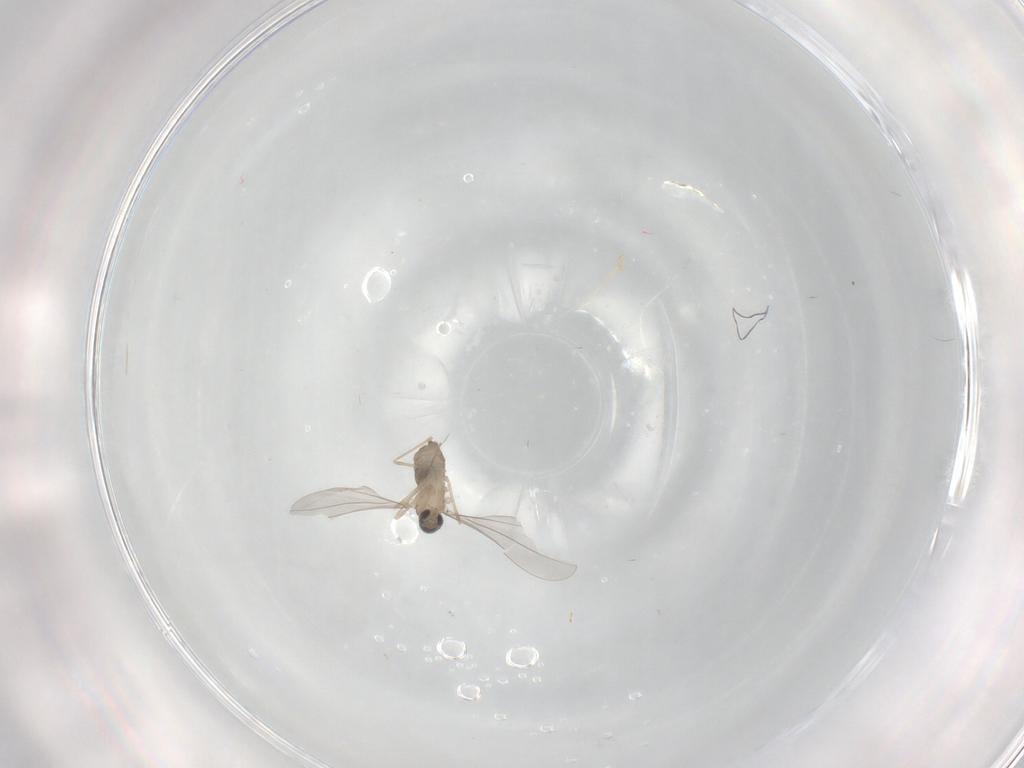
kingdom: Animalia
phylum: Arthropoda
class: Insecta
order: Diptera
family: Cecidomyiidae
